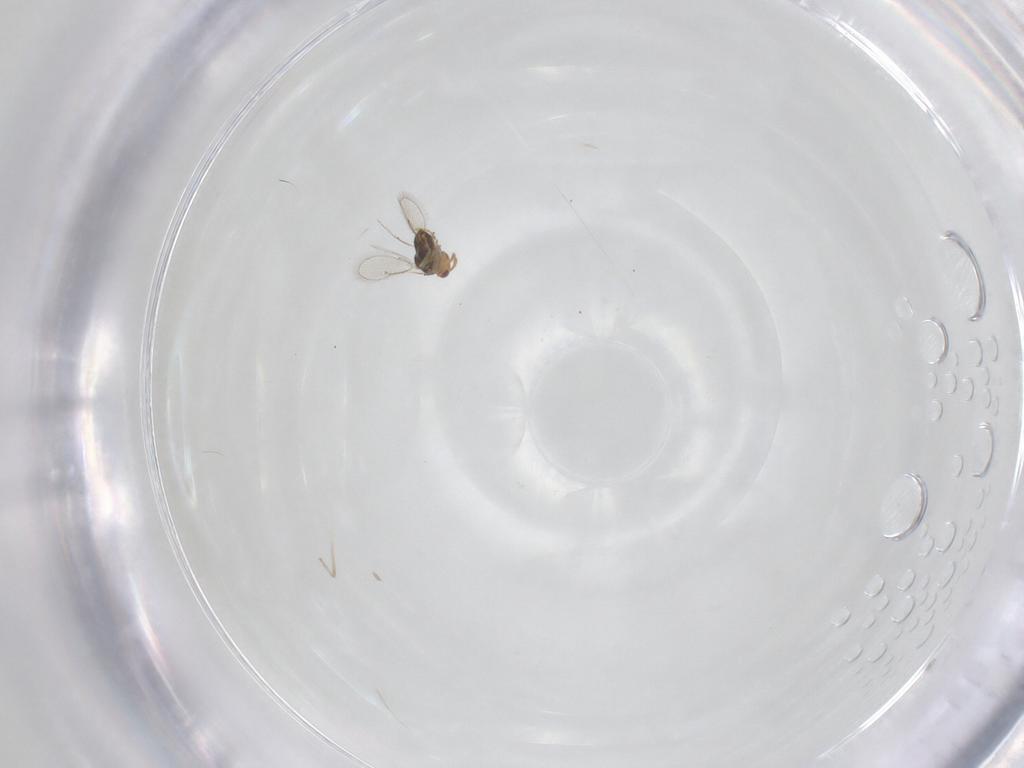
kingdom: Animalia
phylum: Arthropoda
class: Insecta
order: Hymenoptera
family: Eulophidae
